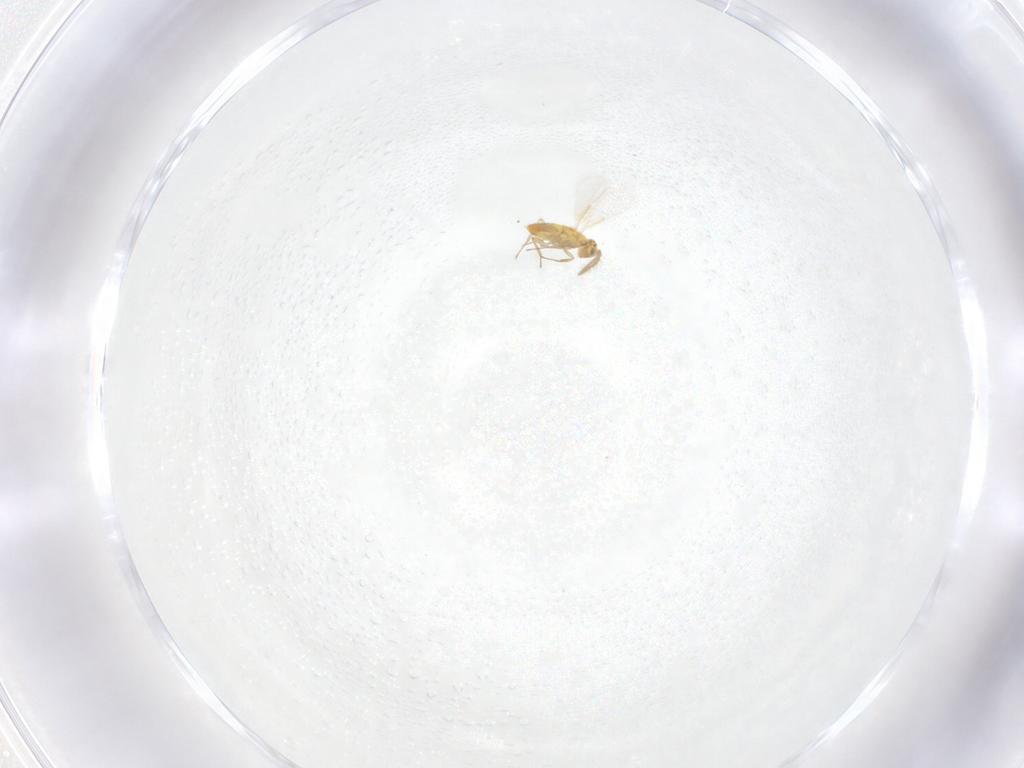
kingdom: Animalia
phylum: Arthropoda
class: Insecta
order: Hymenoptera
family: Aphelinidae
